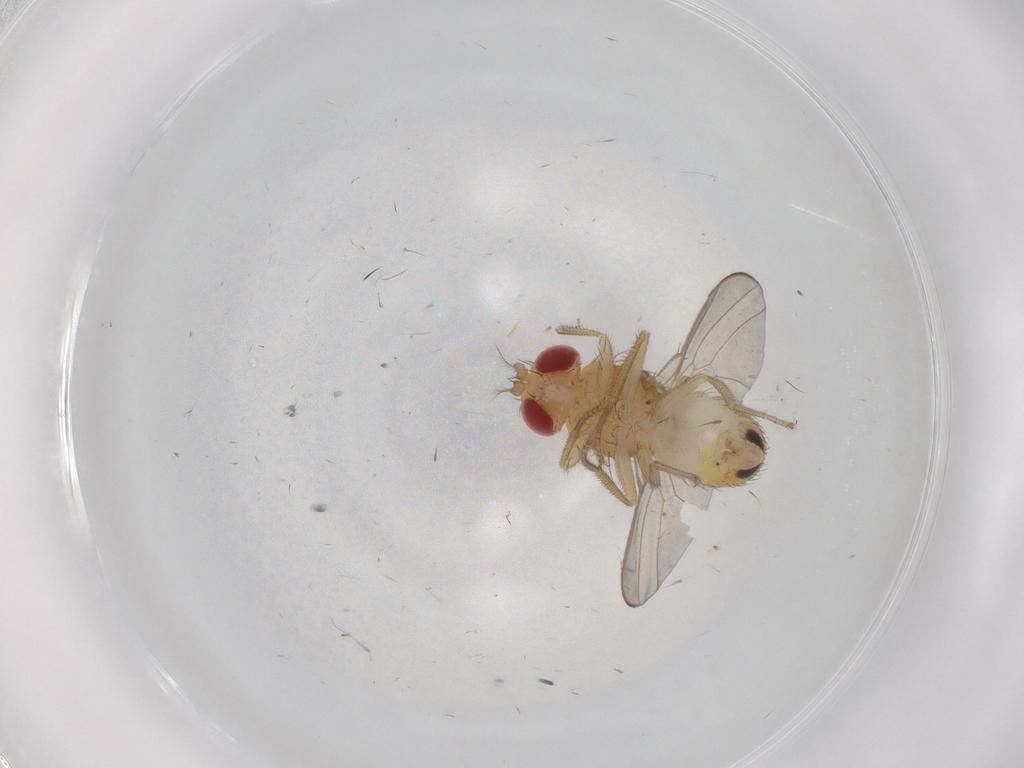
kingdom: Animalia
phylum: Arthropoda
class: Insecta
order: Diptera
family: Drosophilidae
